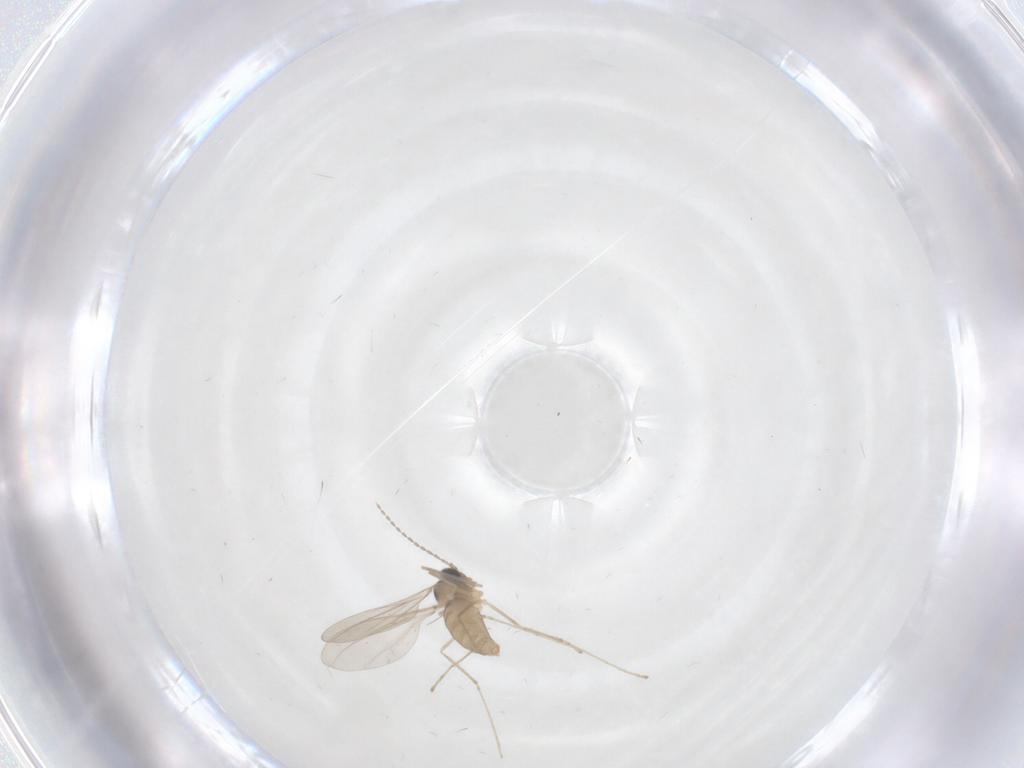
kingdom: Animalia
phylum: Arthropoda
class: Insecta
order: Diptera
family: Cecidomyiidae
